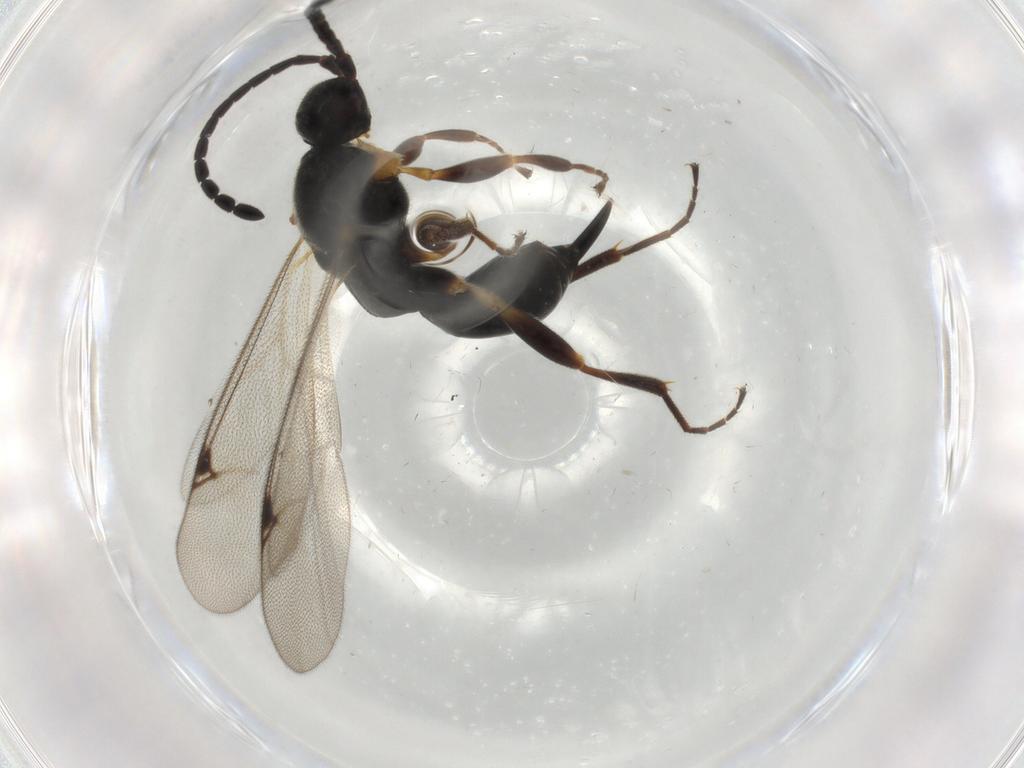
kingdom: Animalia
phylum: Arthropoda
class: Insecta
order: Hymenoptera
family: Proctotrupidae
